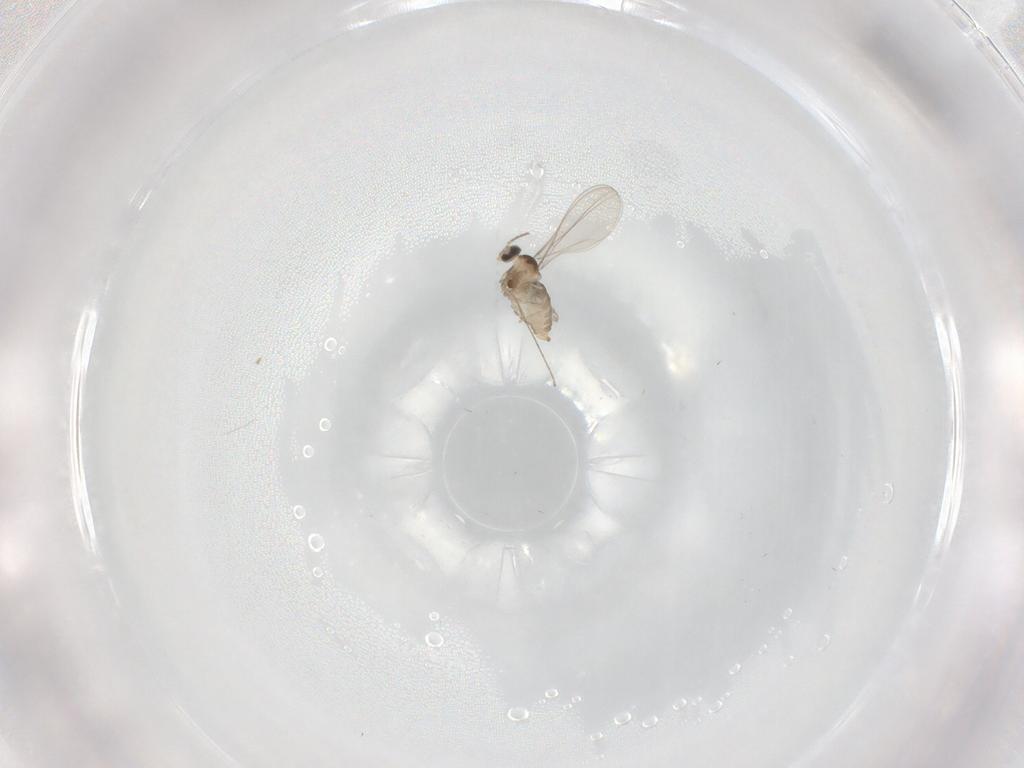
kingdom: Animalia
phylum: Arthropoda
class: Insecta
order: Diptera
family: Cecidomyiidae
